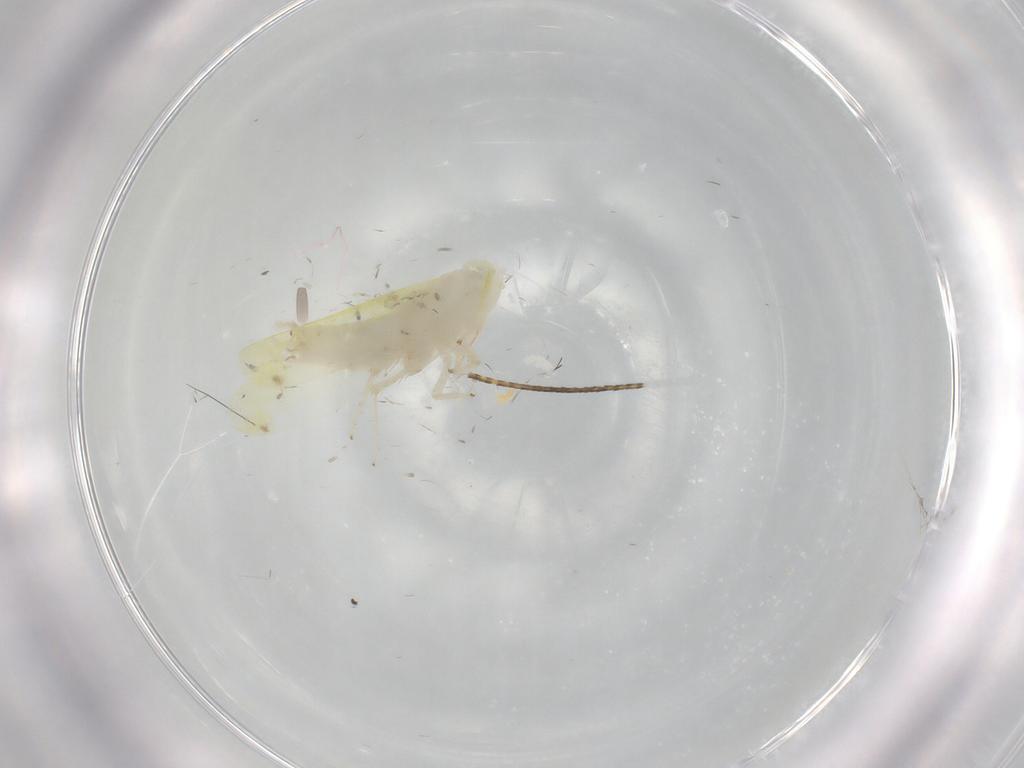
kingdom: Animalia
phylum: Arthropoda
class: Insecta
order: Hemiptera
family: Cicadellidae
